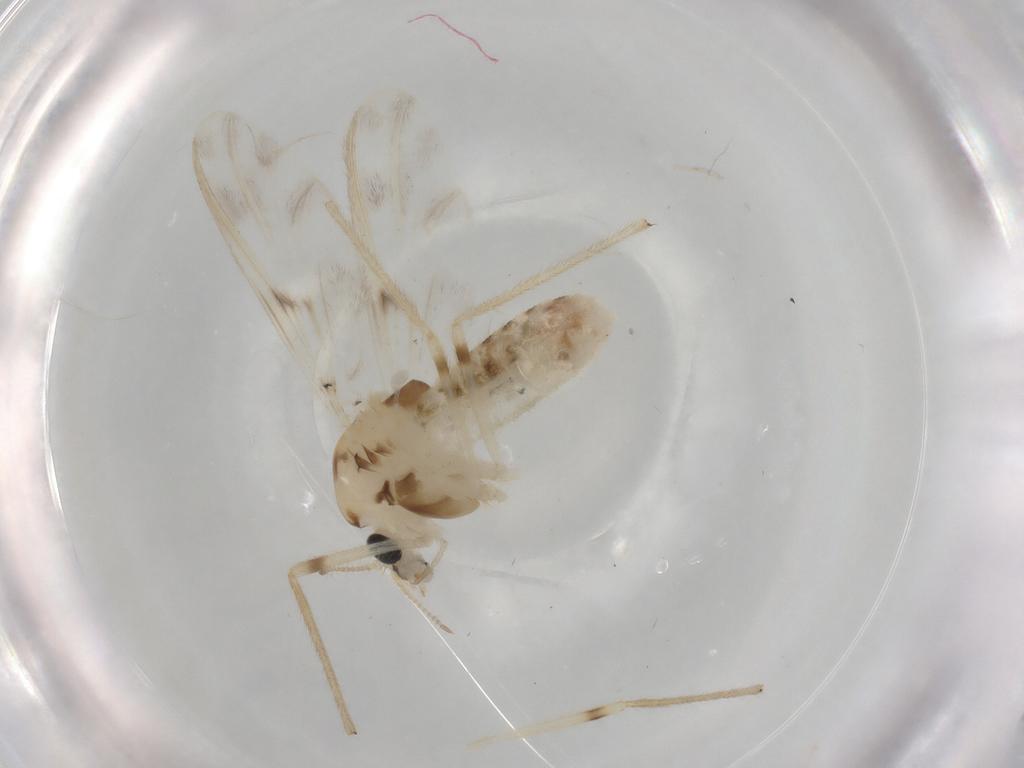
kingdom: Animalia
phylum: Arthropoda
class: Insecta
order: Diptera
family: Chironomidae
